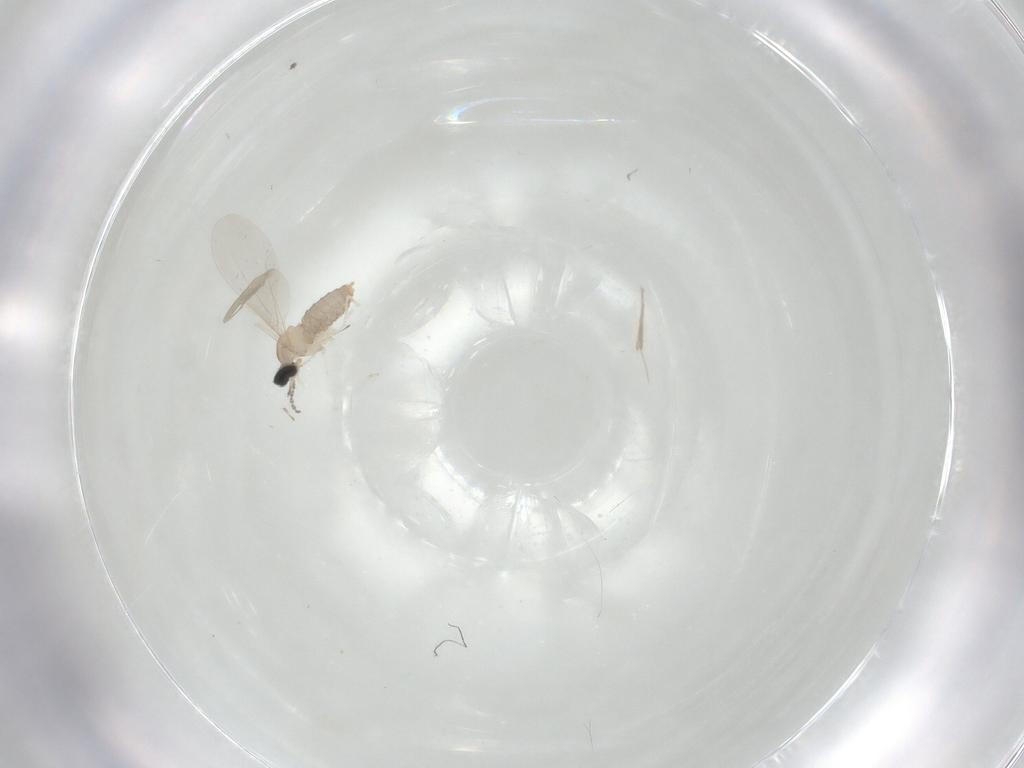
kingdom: Animalia
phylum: Arthropoda
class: Insecta
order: Diptera
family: Cecidomyiidae
